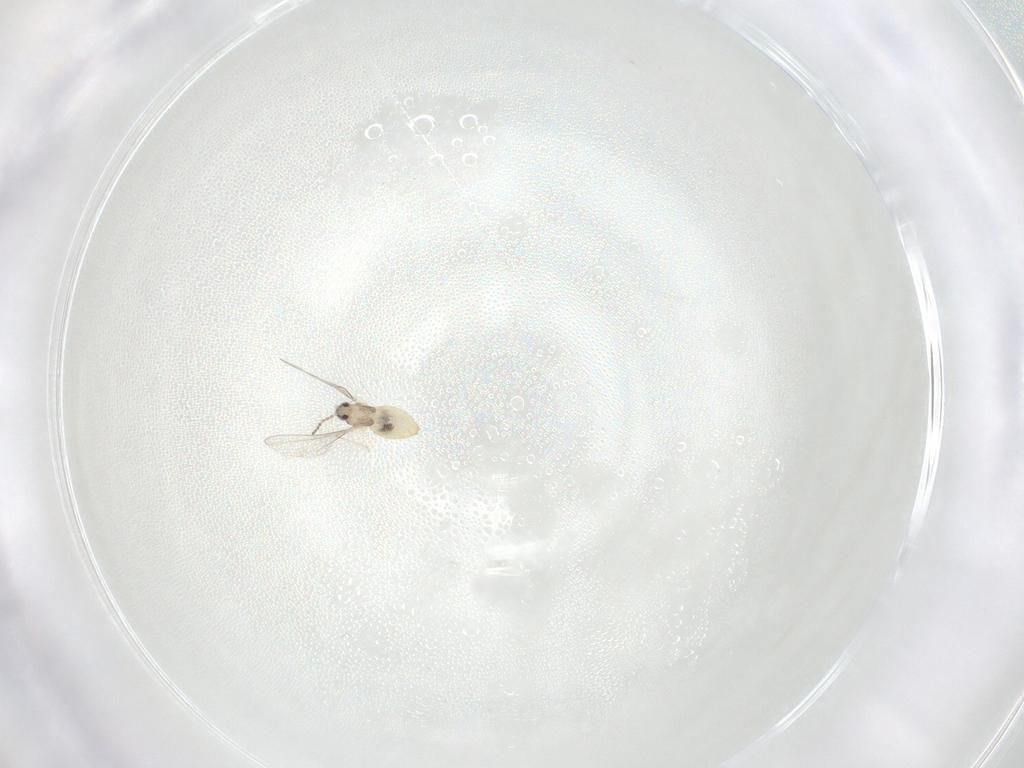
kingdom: Animalia
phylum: Arthropoda
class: Insecta
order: Diptera
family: Cecidomyiidae
